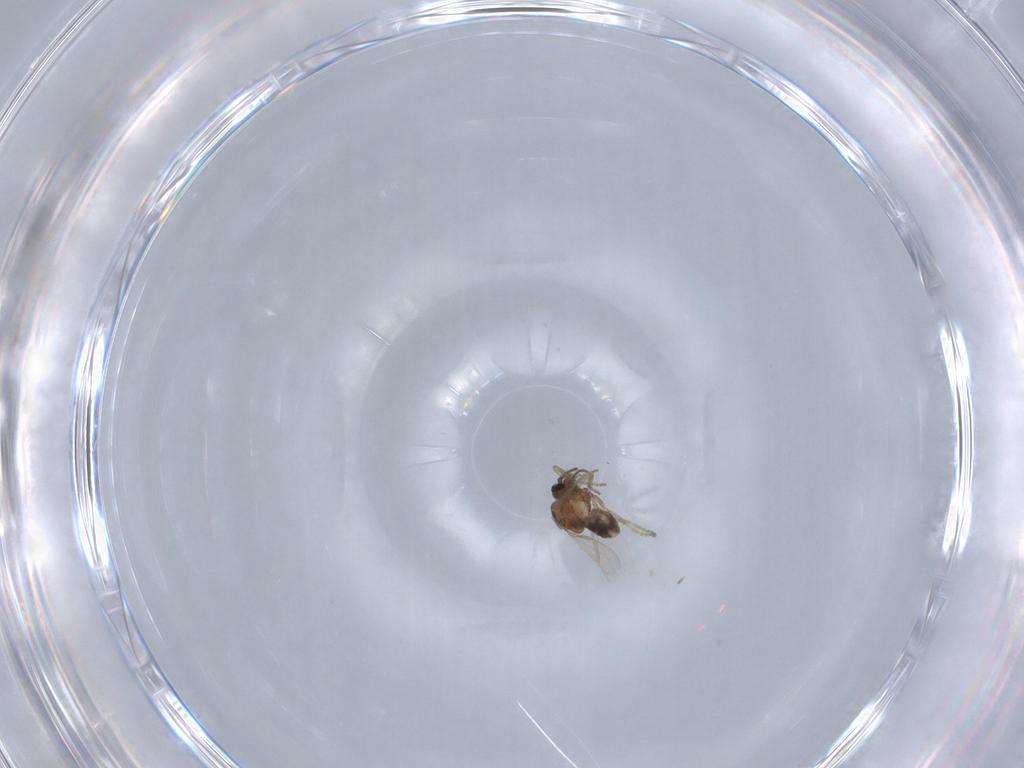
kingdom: Animalia
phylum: Arthropoda
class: Insecta
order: Diptera
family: Ceratopogonidae
